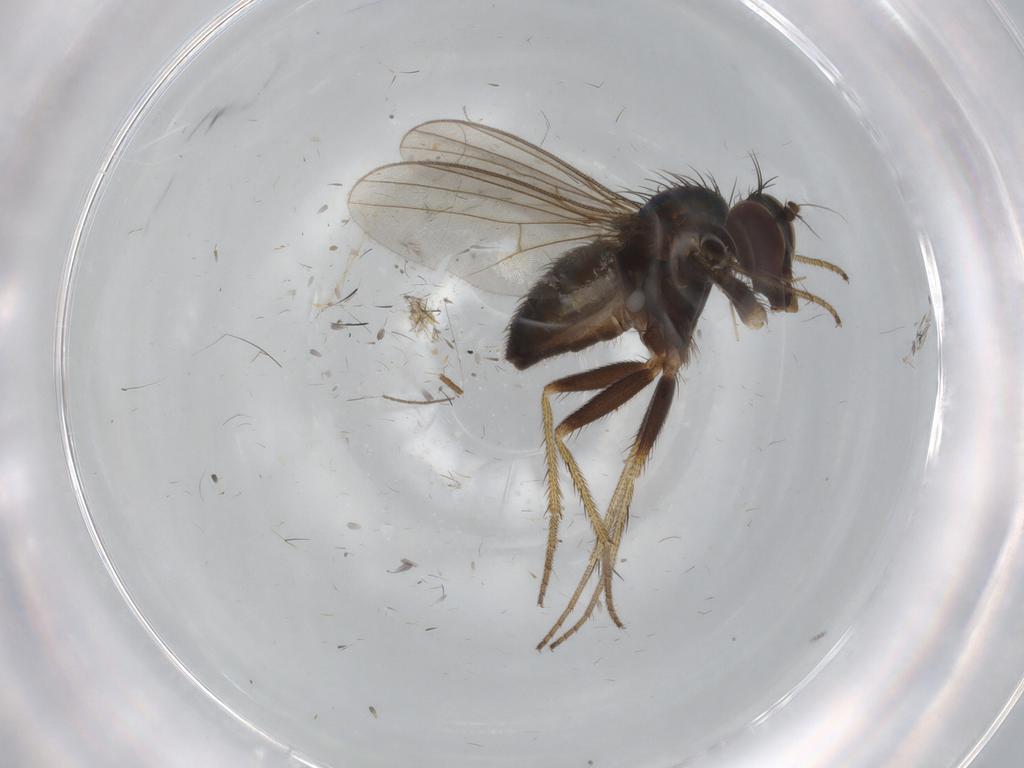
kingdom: Animalia
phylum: Arthropoda
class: Insecta
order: Diptera
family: Dolichopodidae
